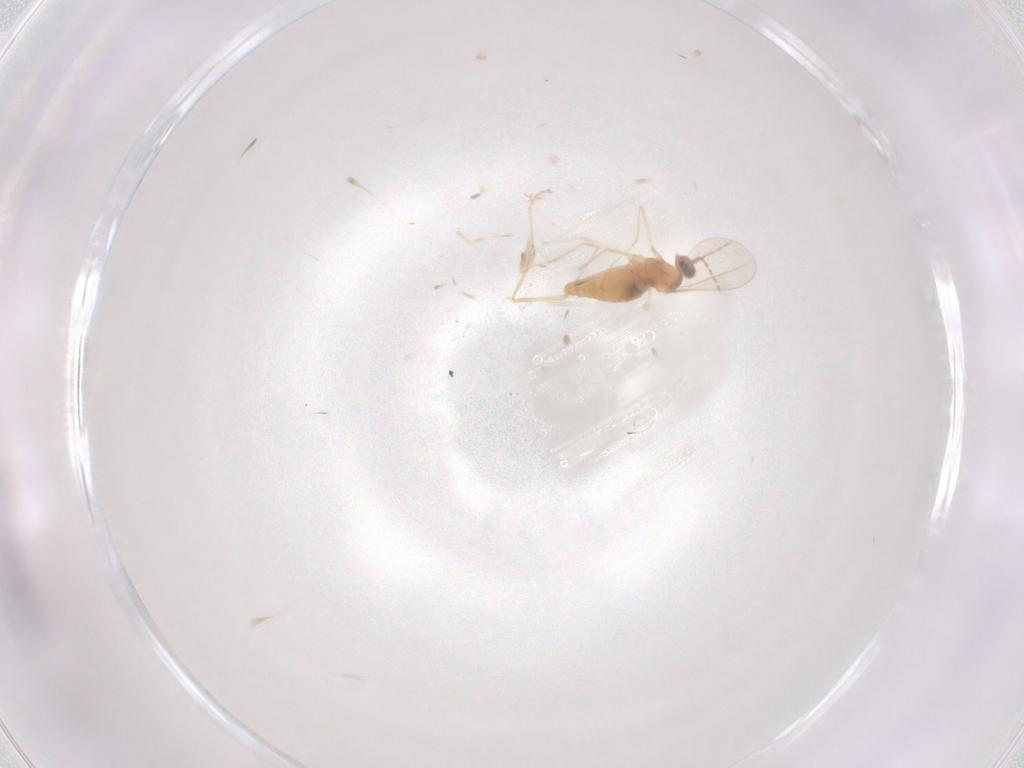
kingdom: Animalia
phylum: Arthropoda
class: Insecta
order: Diptera
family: Cecidomyiidae
